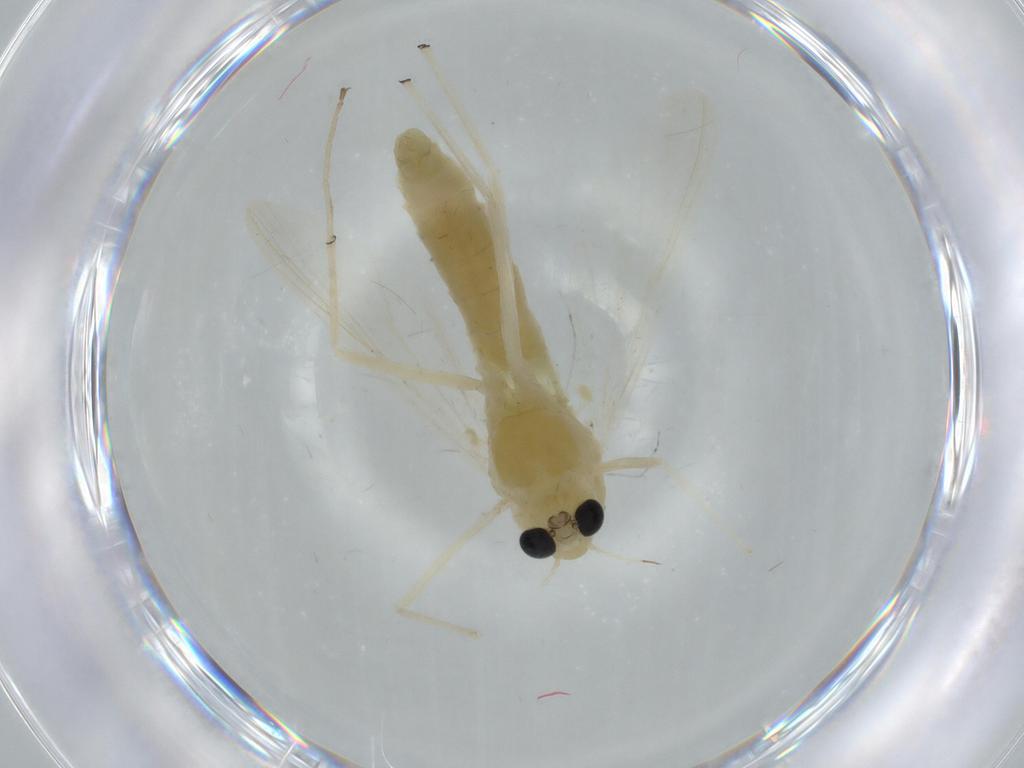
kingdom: Animalia
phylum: Arthropoda
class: Insecta
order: Diptera
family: Chironomidae
